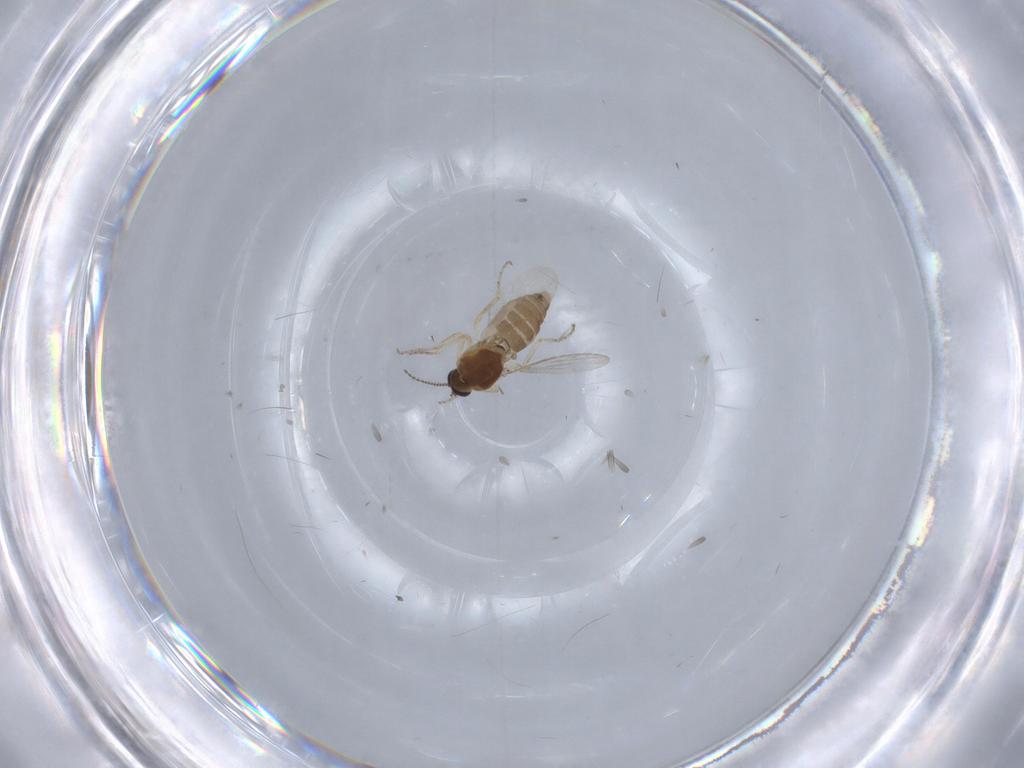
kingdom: Animalia
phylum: Arthropoda
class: Insecta
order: Diptera
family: Ceratopogonidae
